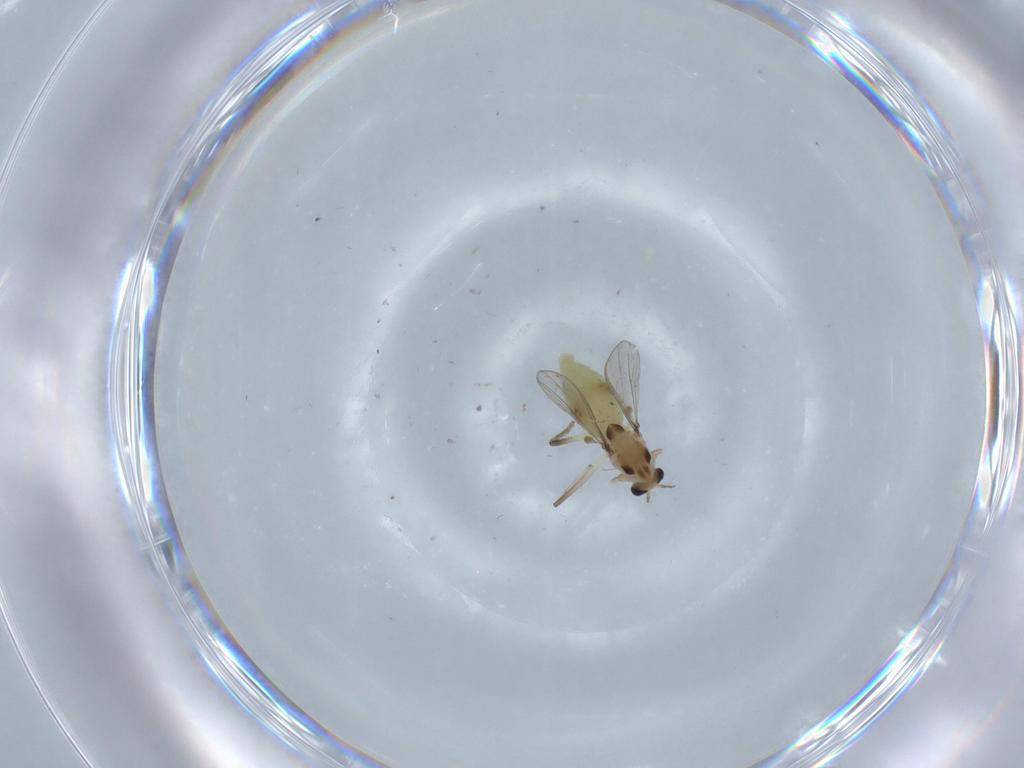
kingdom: Animalia
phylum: Arthropoda
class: Insecta
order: Diptera
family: Chironomidae
